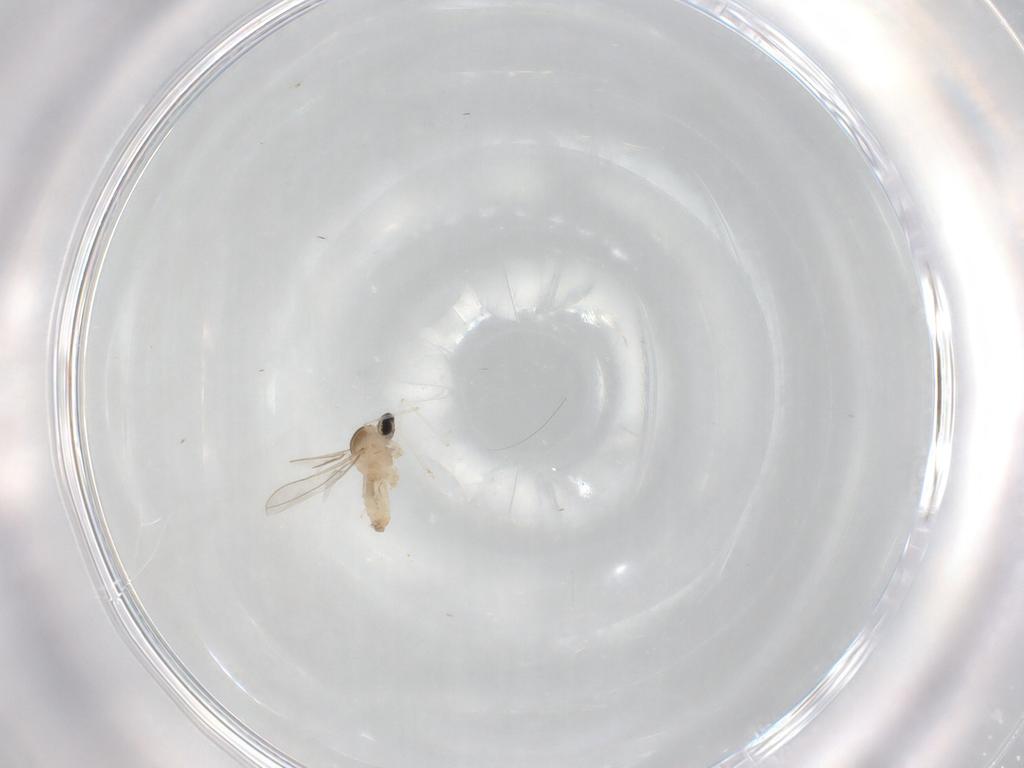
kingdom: Animalia
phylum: Arthropoda
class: Insecta
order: Diptera
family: Cecidomyiidae
